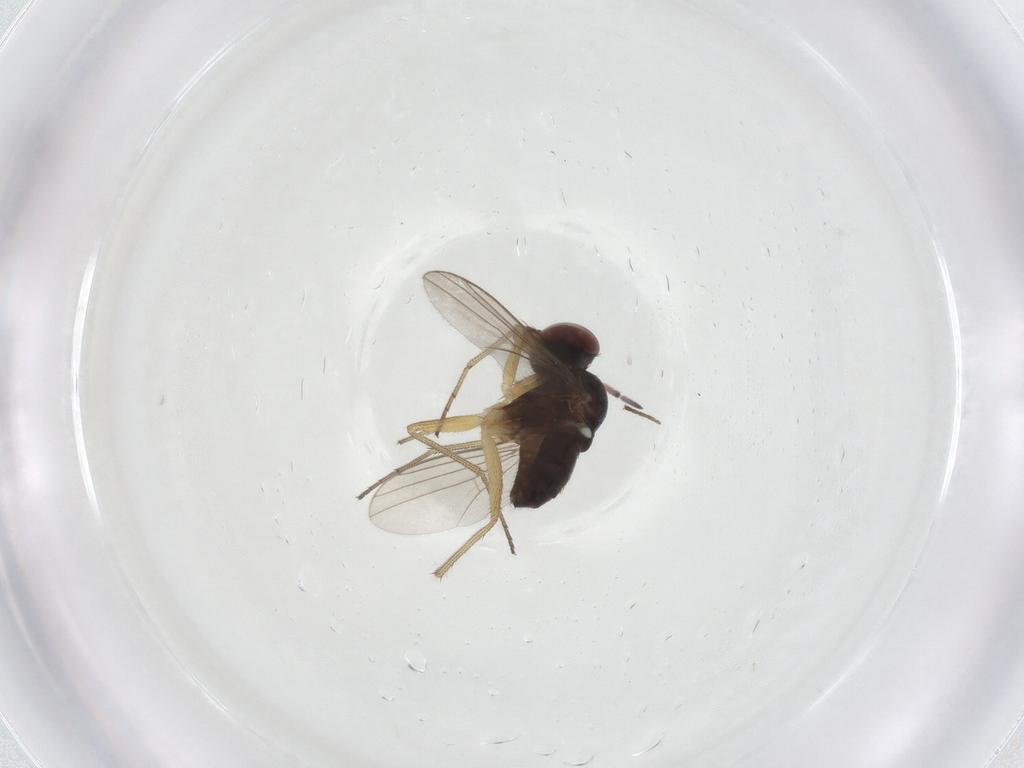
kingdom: Animalia
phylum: Arthropoda
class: Insecta
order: Diptera
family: Dolichopodidae
